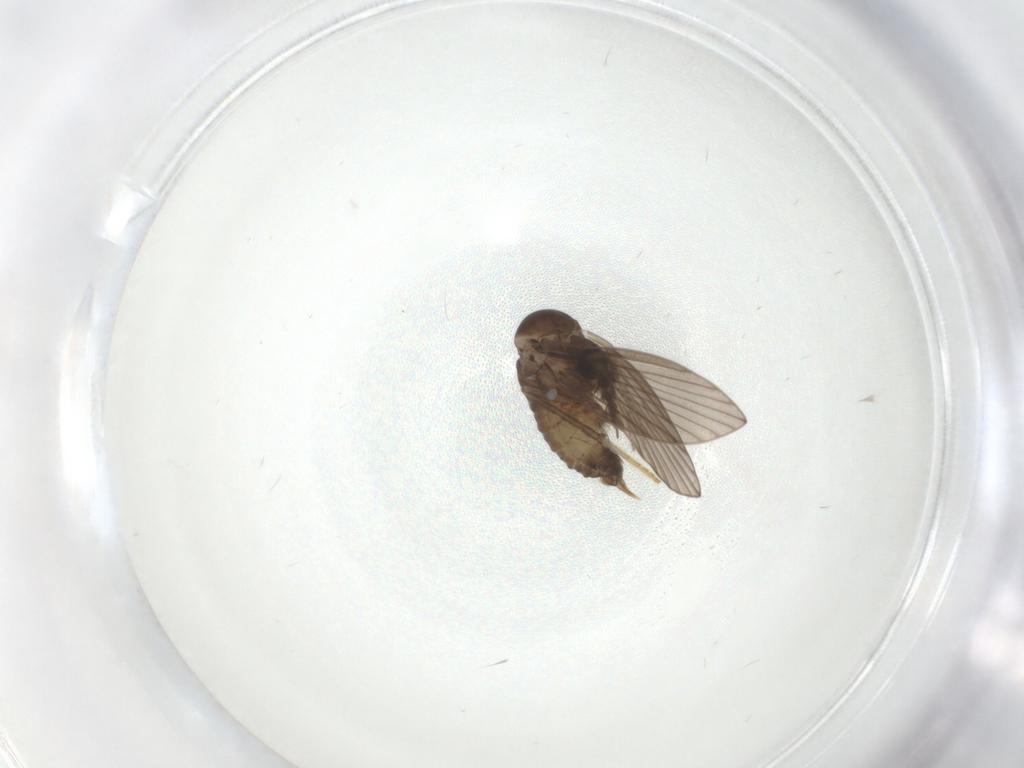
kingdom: Animalia
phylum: Arthropoda
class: Insecta
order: Diptera
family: Psychodidae
